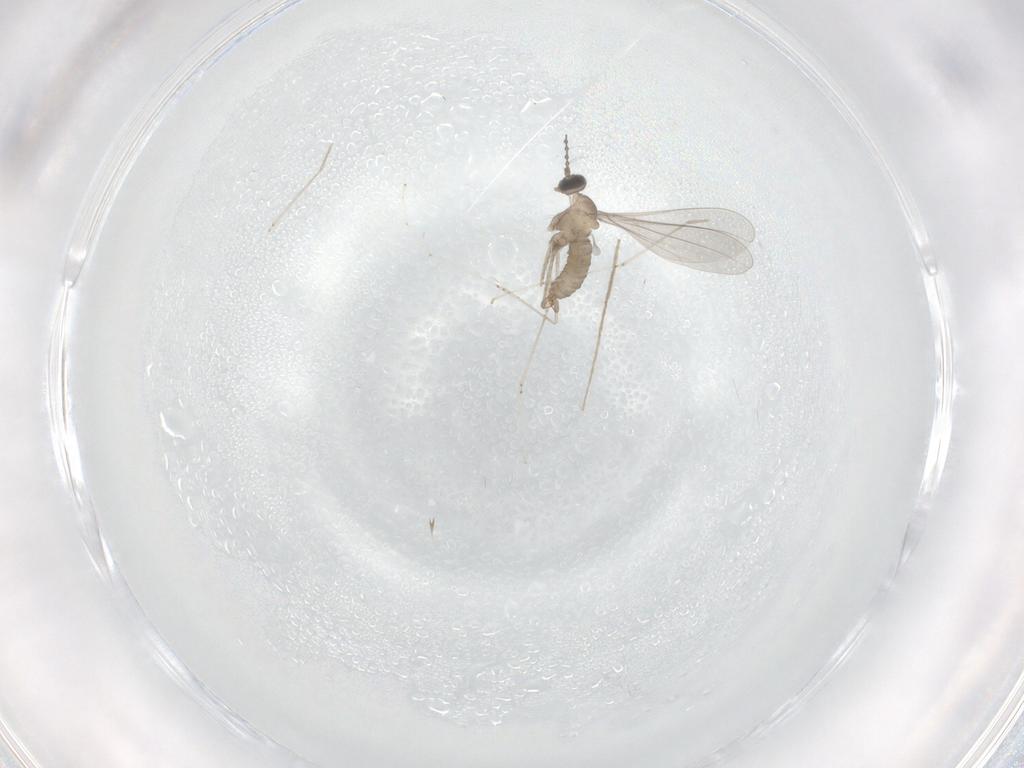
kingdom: Animalia
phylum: Arthropoda
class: Insecta
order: Diptera
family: Chironomidae
